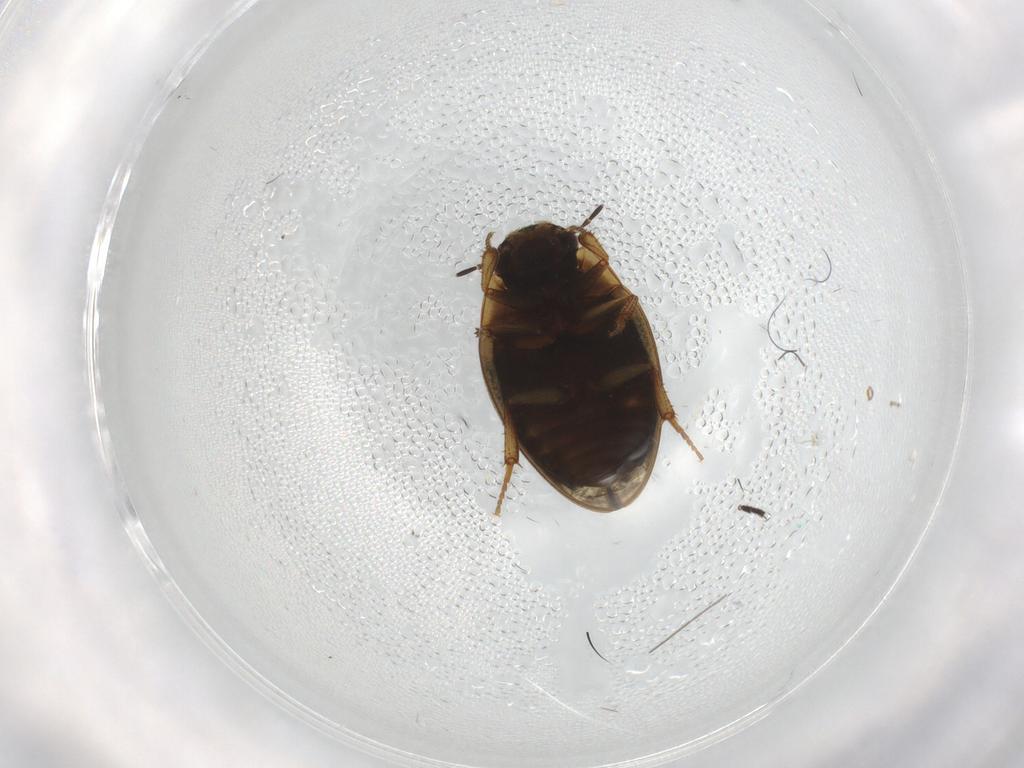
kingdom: Animalia
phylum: Arthropoda
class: Insecta
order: Coleoptera
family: Hydrophilidae
